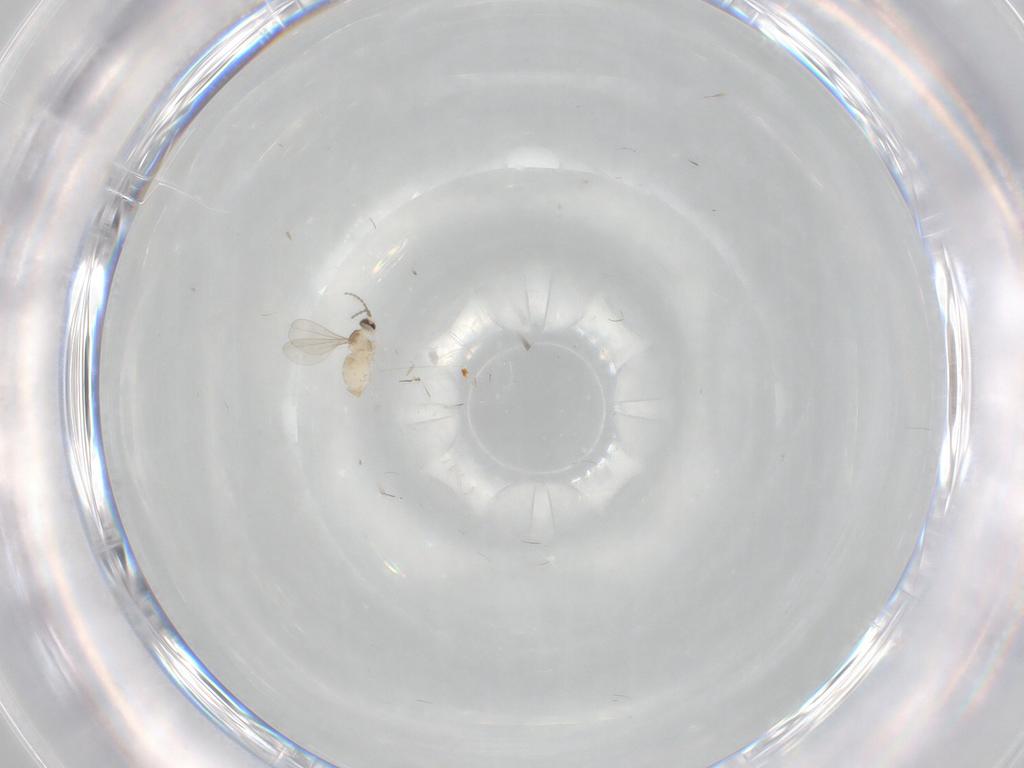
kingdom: Animalia
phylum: Arthropoda
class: Insecta
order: Diptera
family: Cecidomyiidae
